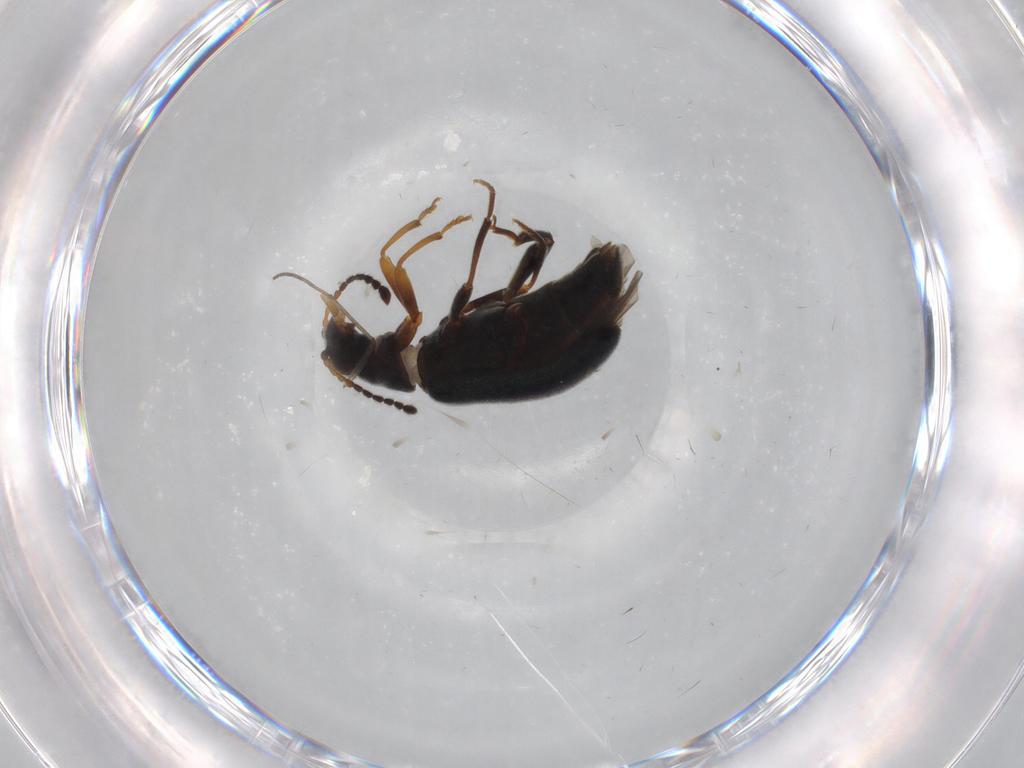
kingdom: Animalia
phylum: Arthropoda
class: Insecta
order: Coleoptera
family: Aderidae
